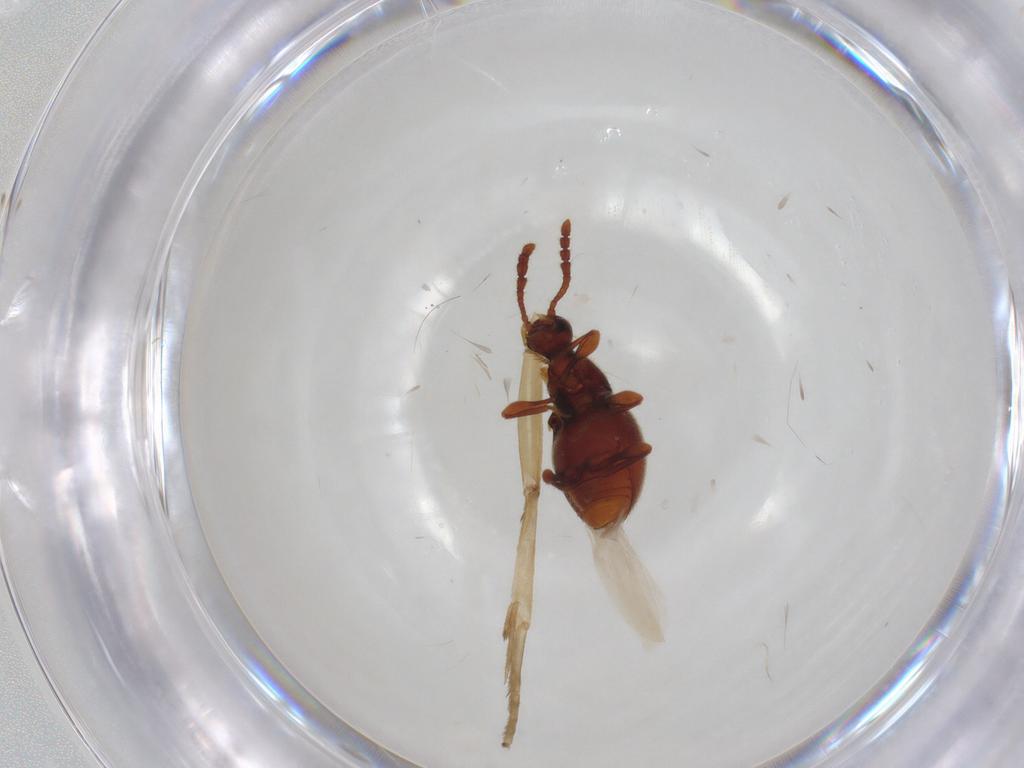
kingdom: Animalia
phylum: Arthropoda
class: Insecta
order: Coleoptera
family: Staphylinidae
